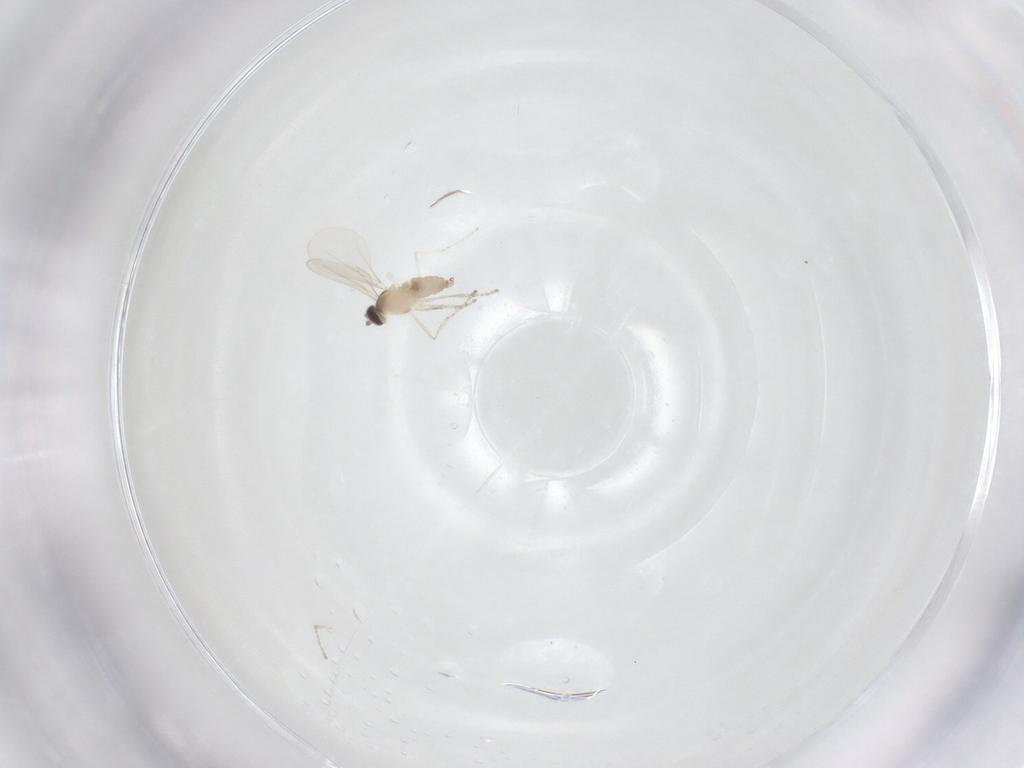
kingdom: Animalia
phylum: Arthropoda
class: Insecta
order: Diptera
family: Cecidomyiidae
